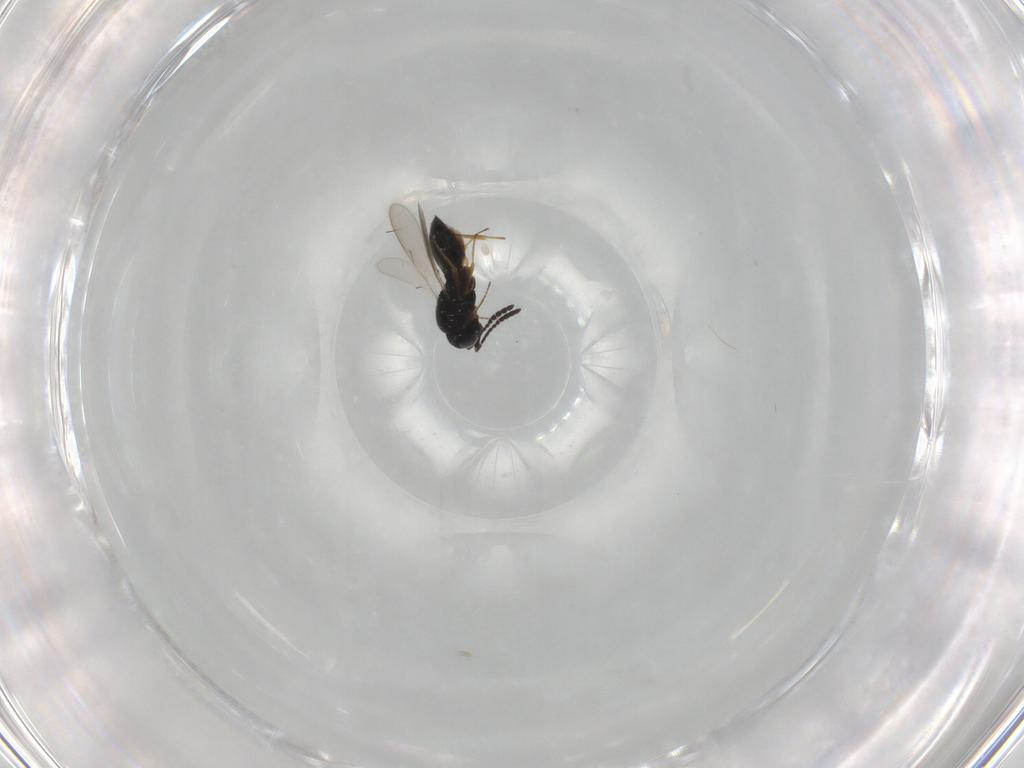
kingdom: Animalia
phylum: Arthropoda
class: Insecta
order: Hymenoptera
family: Scelionidae
